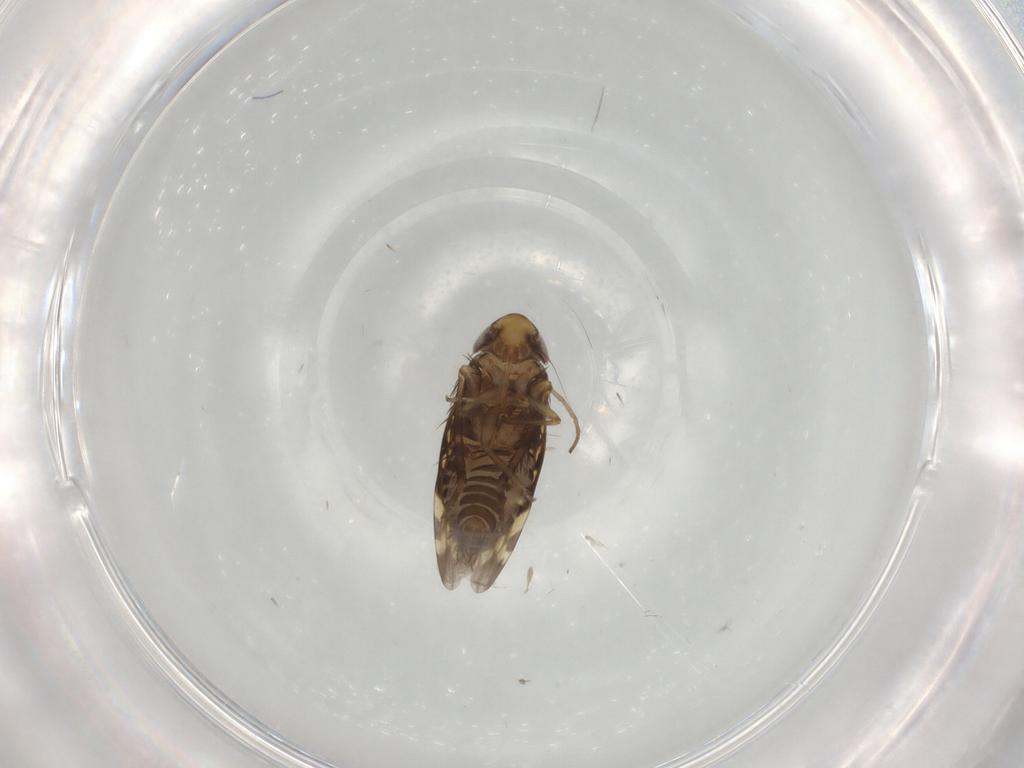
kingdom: Animalia
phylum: Arthropoda
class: Insecta
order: Hemiptera
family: Cicadellidae
